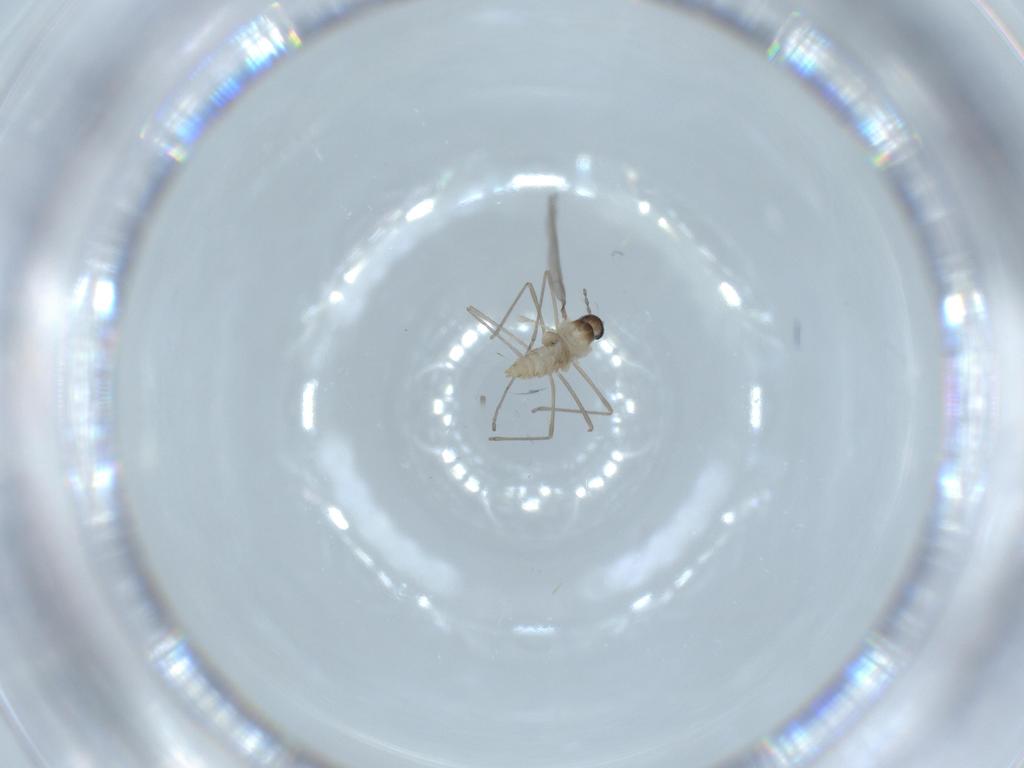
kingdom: Animalia
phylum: Arthropoda
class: Insecta
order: Diptera
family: Cecidomyiidae
